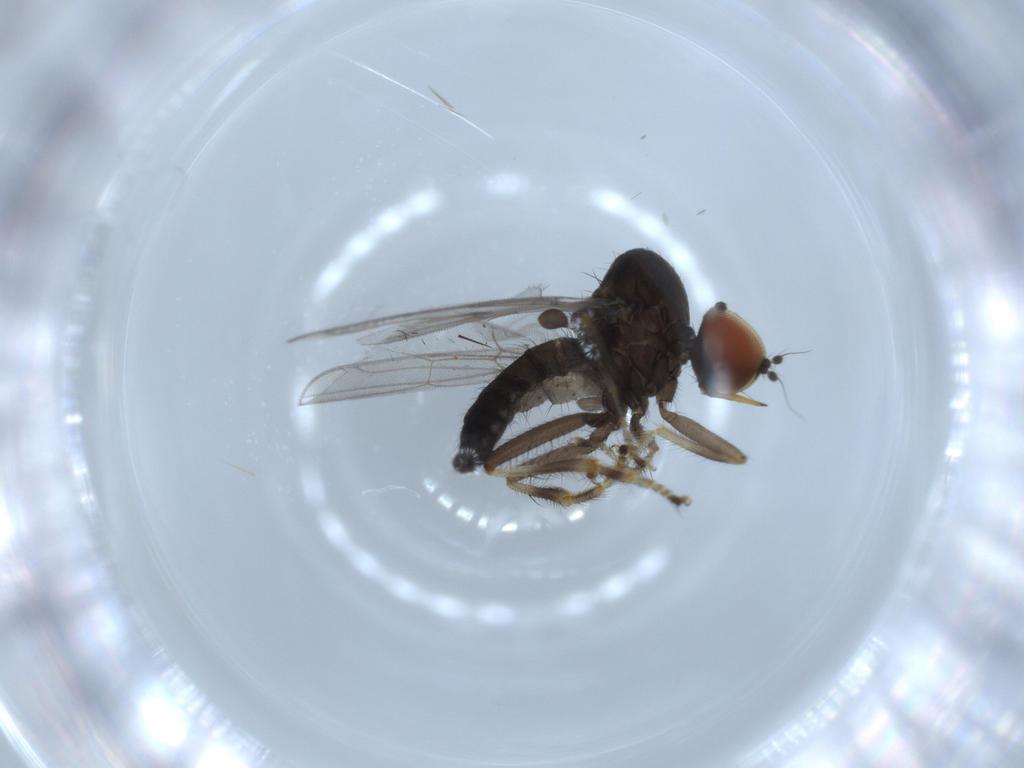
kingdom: Animalia
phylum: Arthropoda
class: Insecta
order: Diptera
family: Hybotidae
